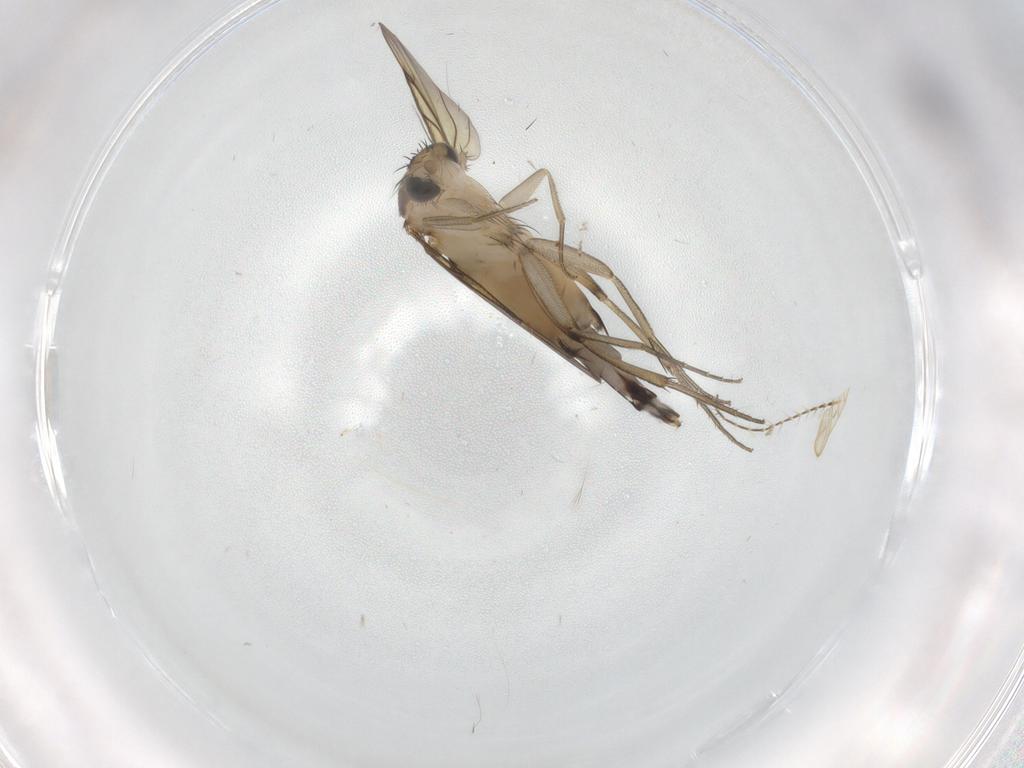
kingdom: Animalia
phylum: Arthropoda
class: Insecta
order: Diptera
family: Phoridae
